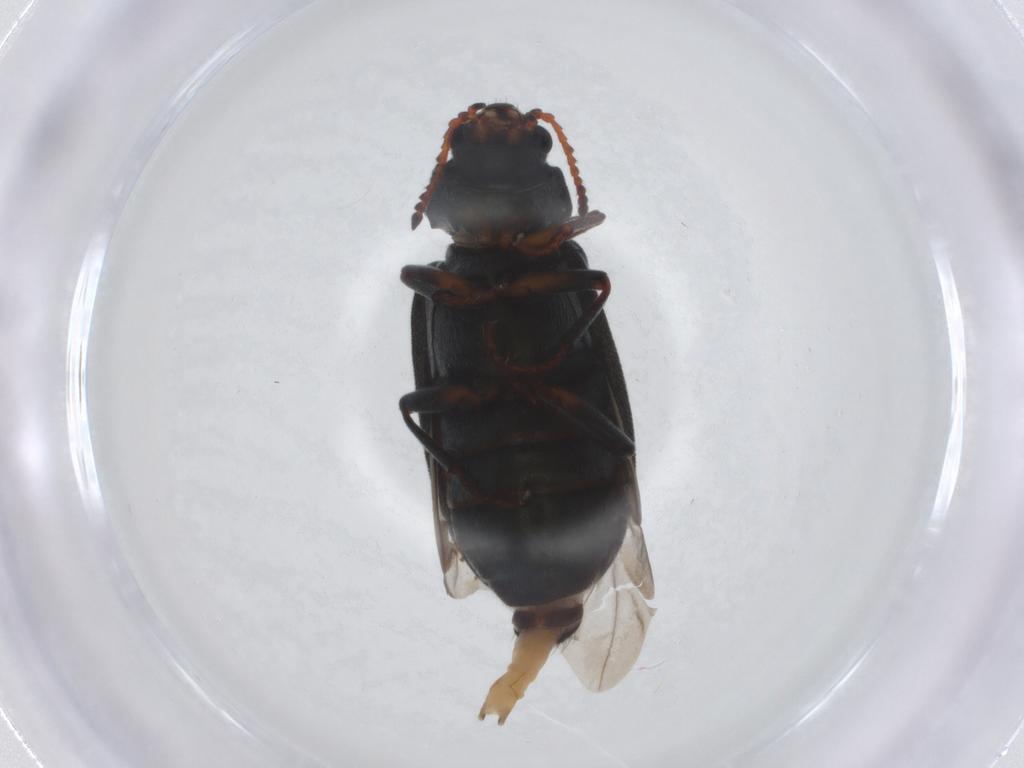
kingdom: Animalia
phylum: Arthropoda
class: Insecta
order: Coleoptera
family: Melyridae
